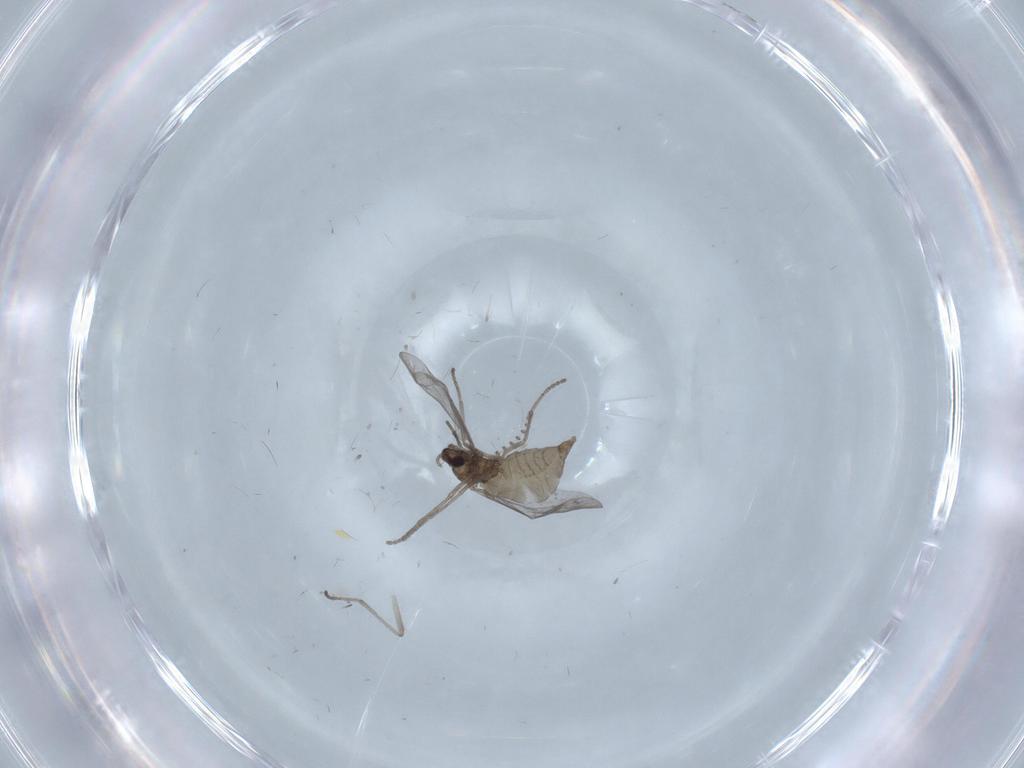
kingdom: Animalia
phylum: Arthropoda
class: Insecta
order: Diptera
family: Cecidomyiidae
